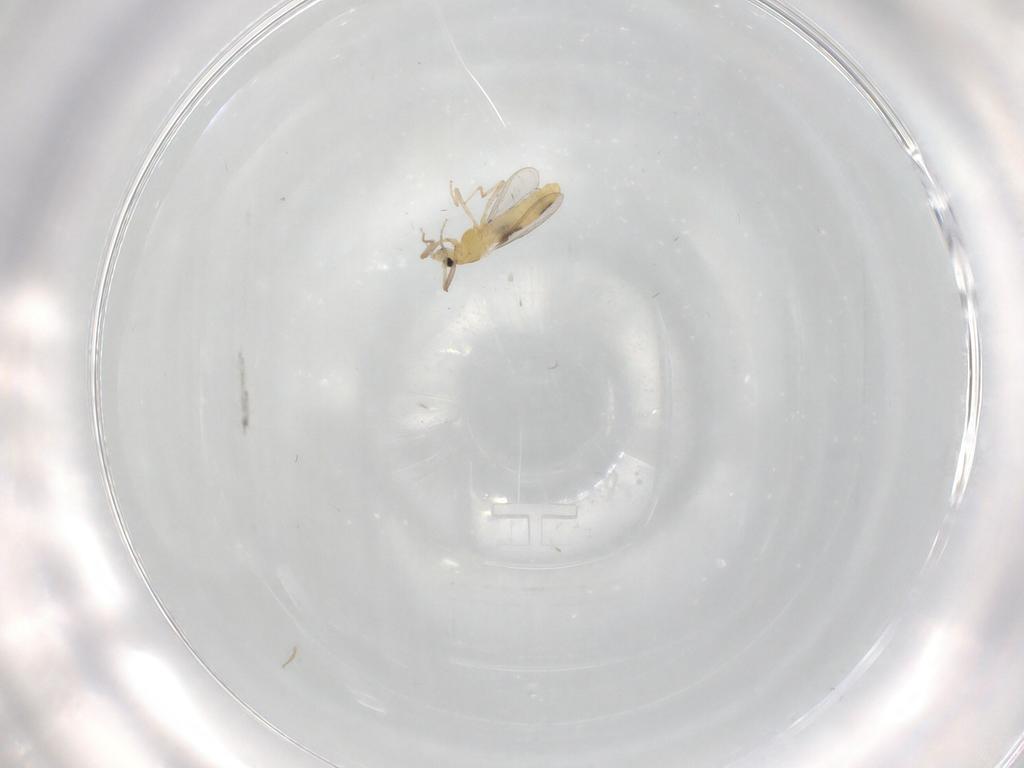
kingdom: Animalia
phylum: Arthropoda
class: Insecta
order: Diptera
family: Chironomidae
